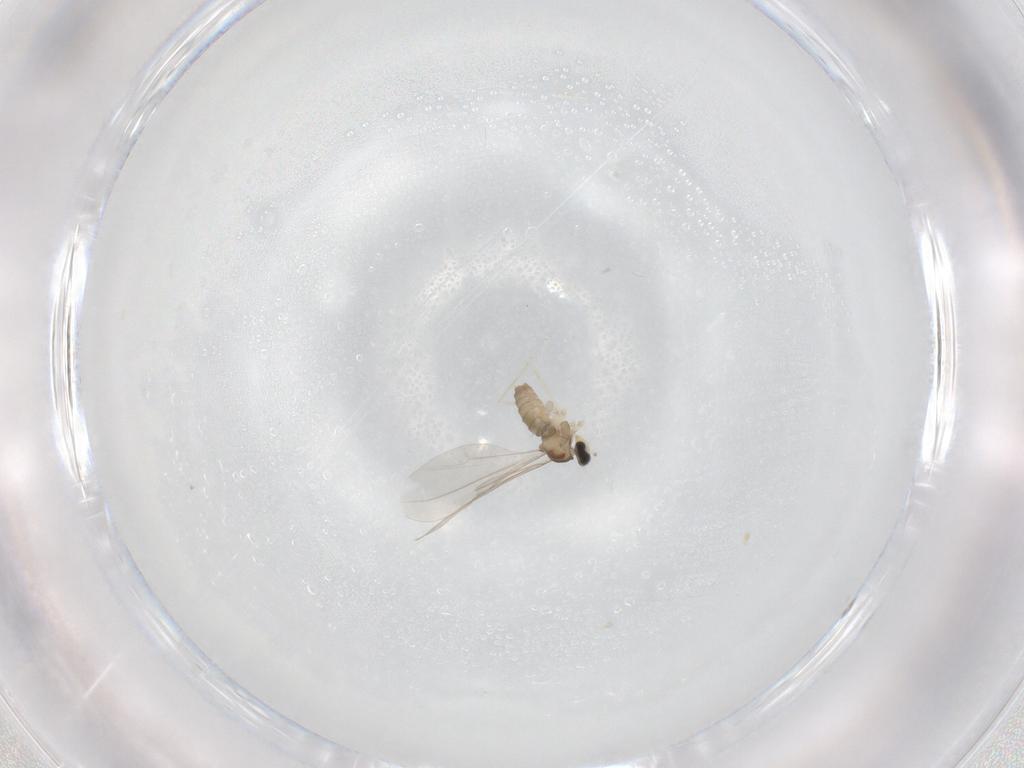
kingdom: Animalia
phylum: Arthropoda
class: Insecta
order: Diptera
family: Cecidomyiidae
